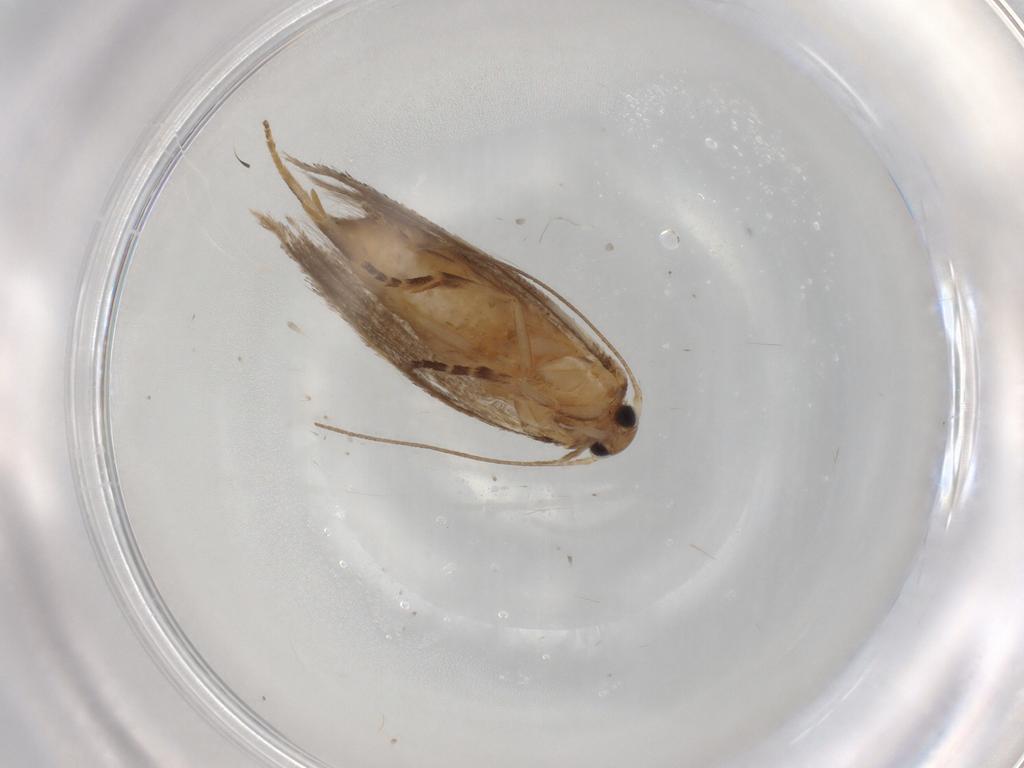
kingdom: Animalia
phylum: Arthropoda
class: Insecta
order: Lepidoptera
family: Elachistidae
